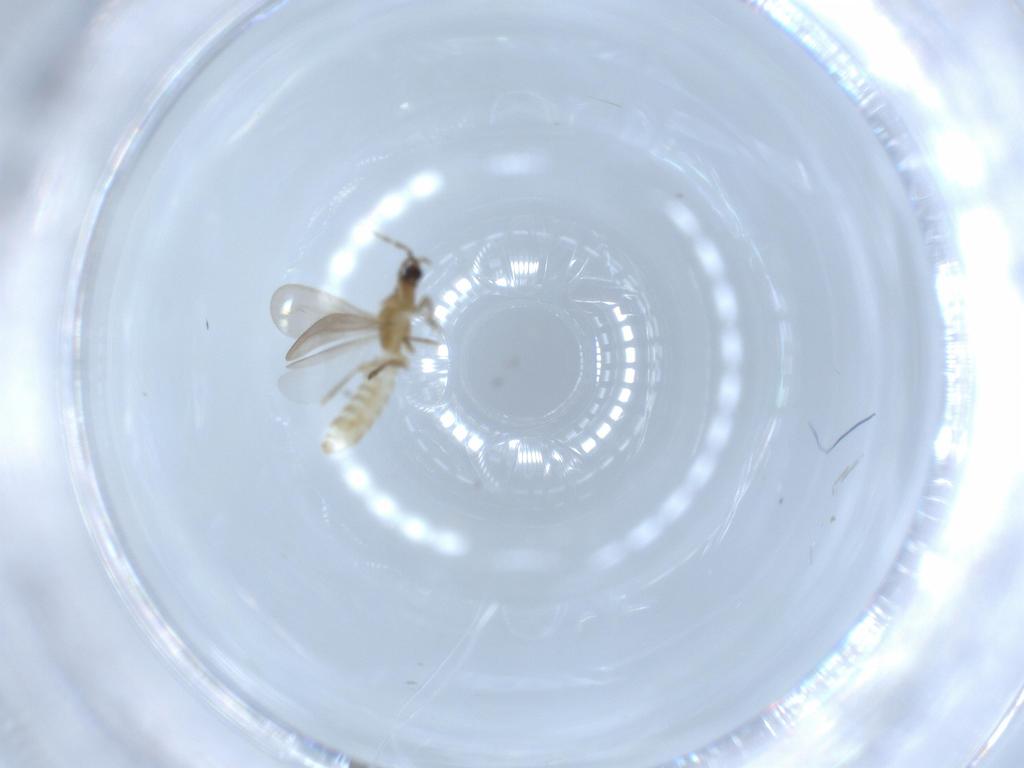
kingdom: Animalia
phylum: Arthropoda
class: Insecta
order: Hemiptera
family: Enicocephalidae
